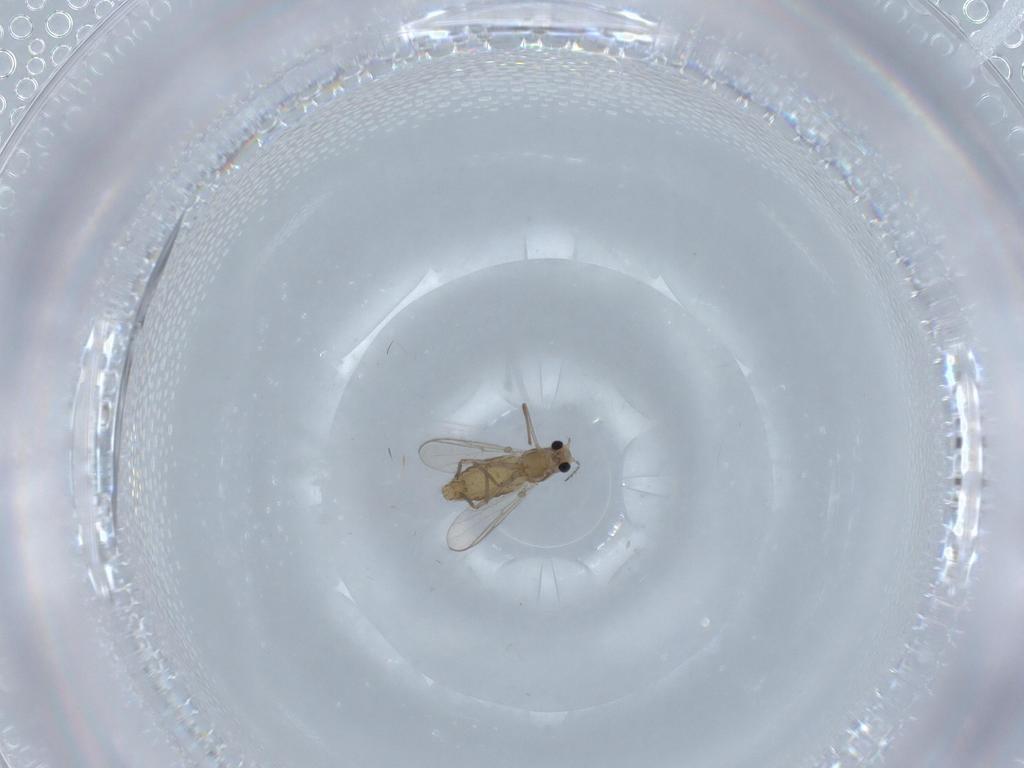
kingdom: Animalia
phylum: Arthropoda
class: Insecta
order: Diptera
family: Chironomidae
